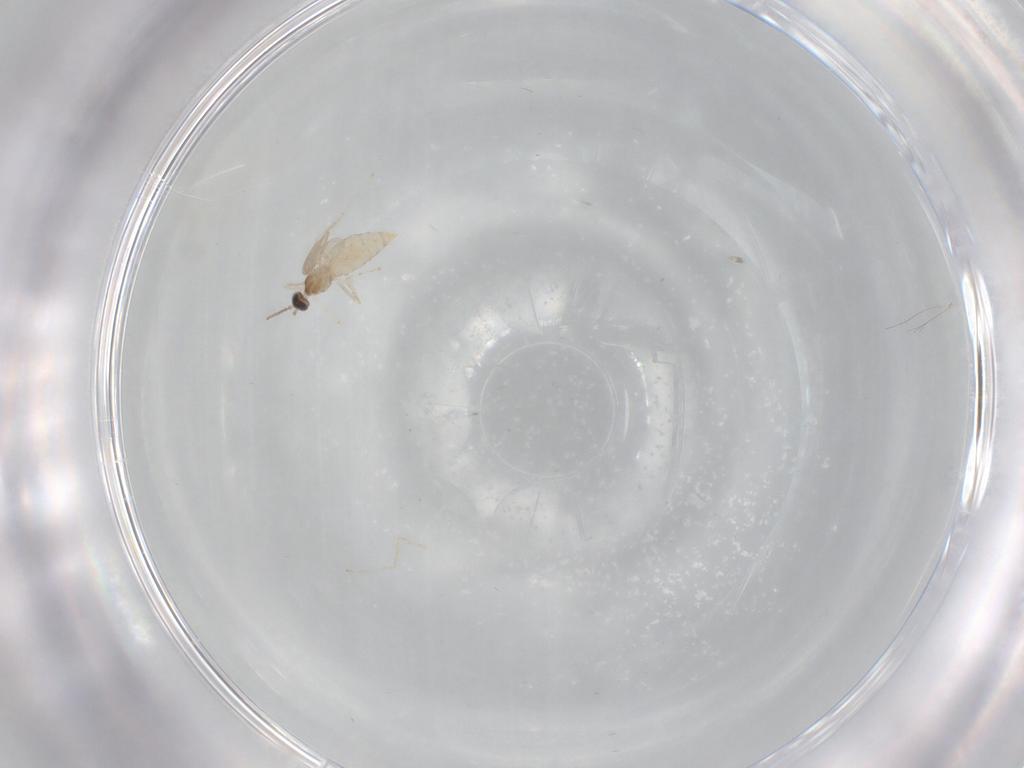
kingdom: Animalia
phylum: Arthropoda
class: Insecta
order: Diptera
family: Cecidomyiidae
